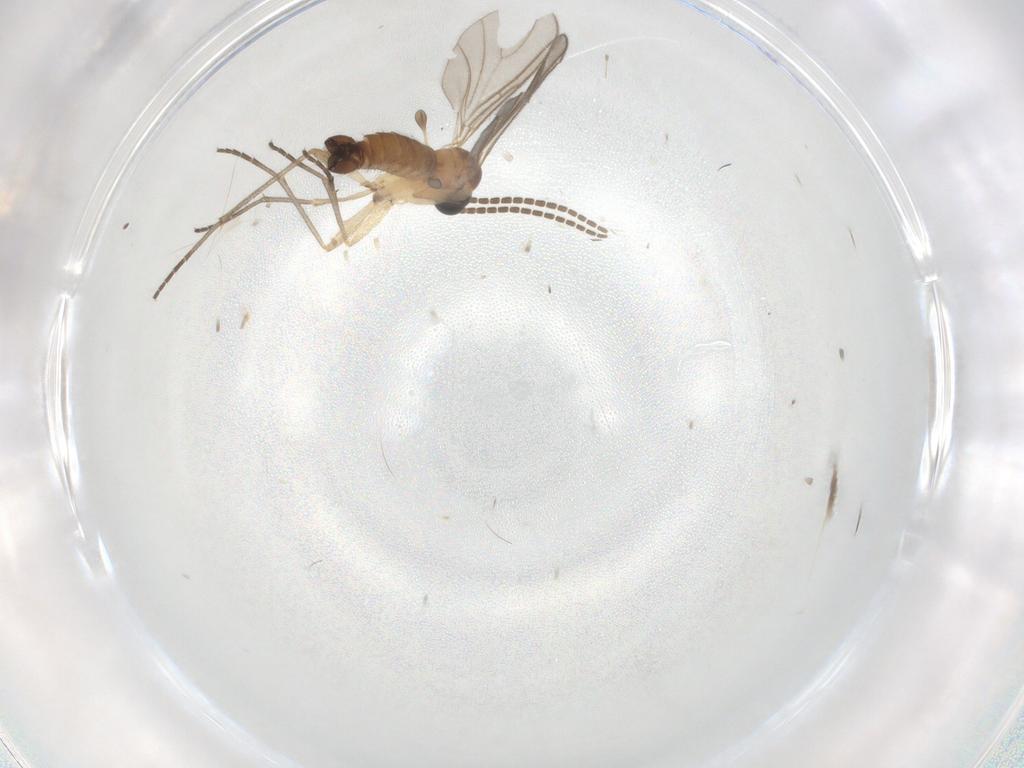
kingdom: Animalia
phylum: Arthropoda
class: Insecta
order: Diptera
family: Sciaridae
